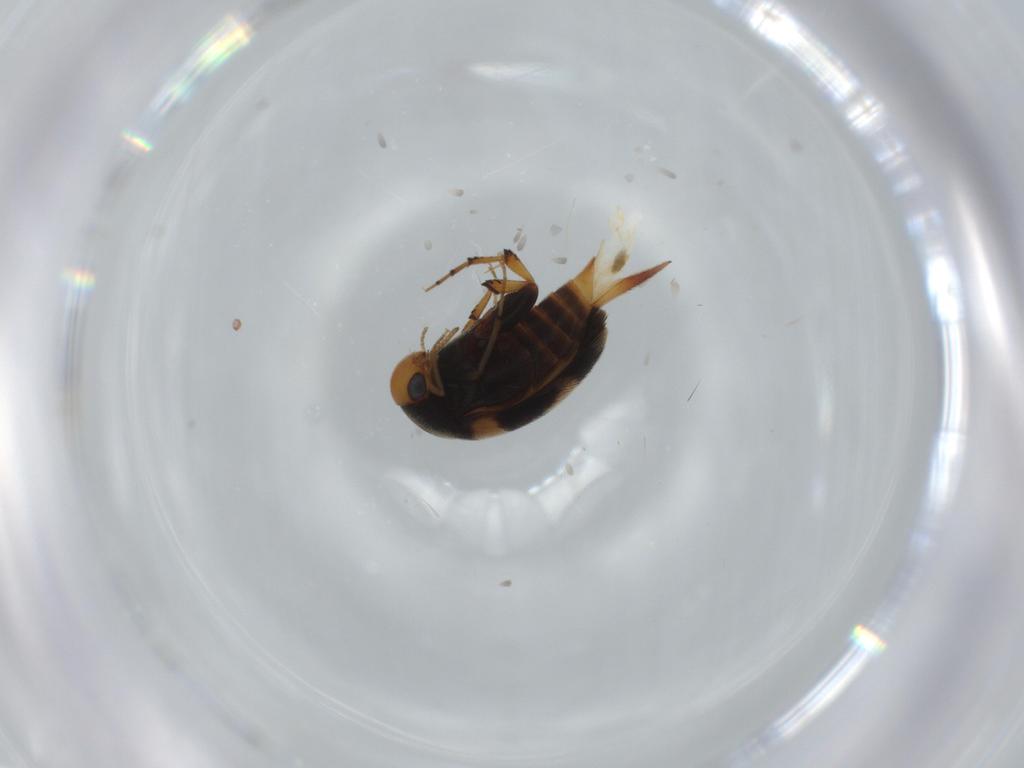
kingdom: Animalia
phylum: Arthropoda
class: Insecta
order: Coleoptera
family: Mordellidae
